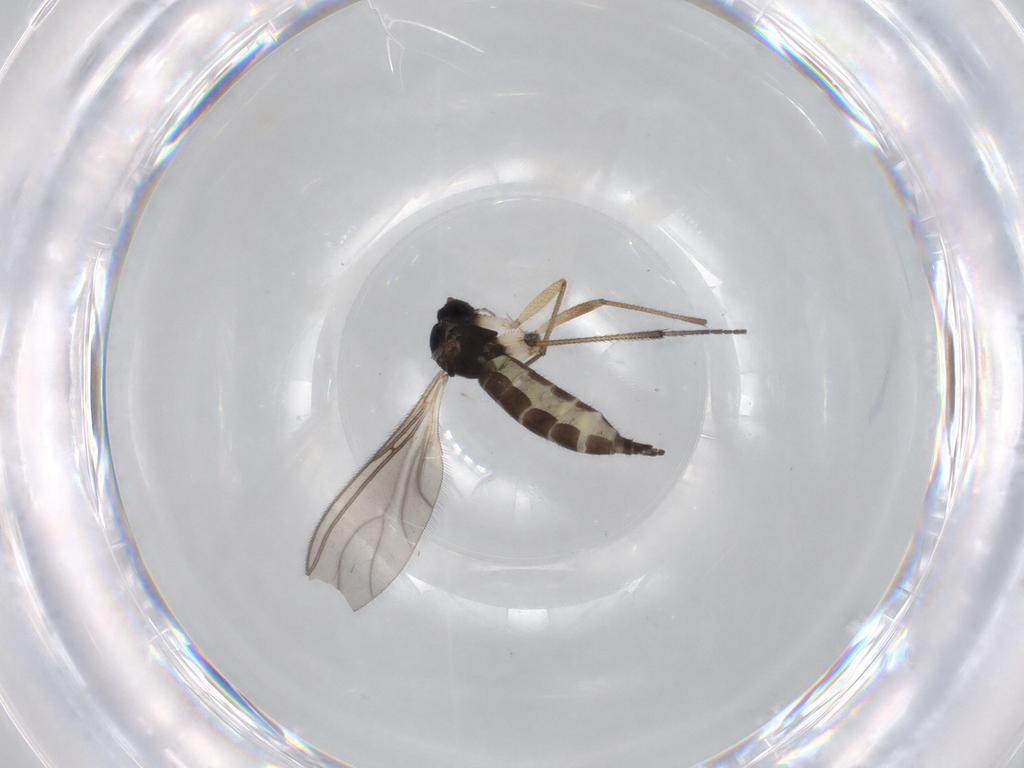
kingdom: Animalia
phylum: Arthropoda
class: Insecta
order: Diptera
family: Sciaridae
